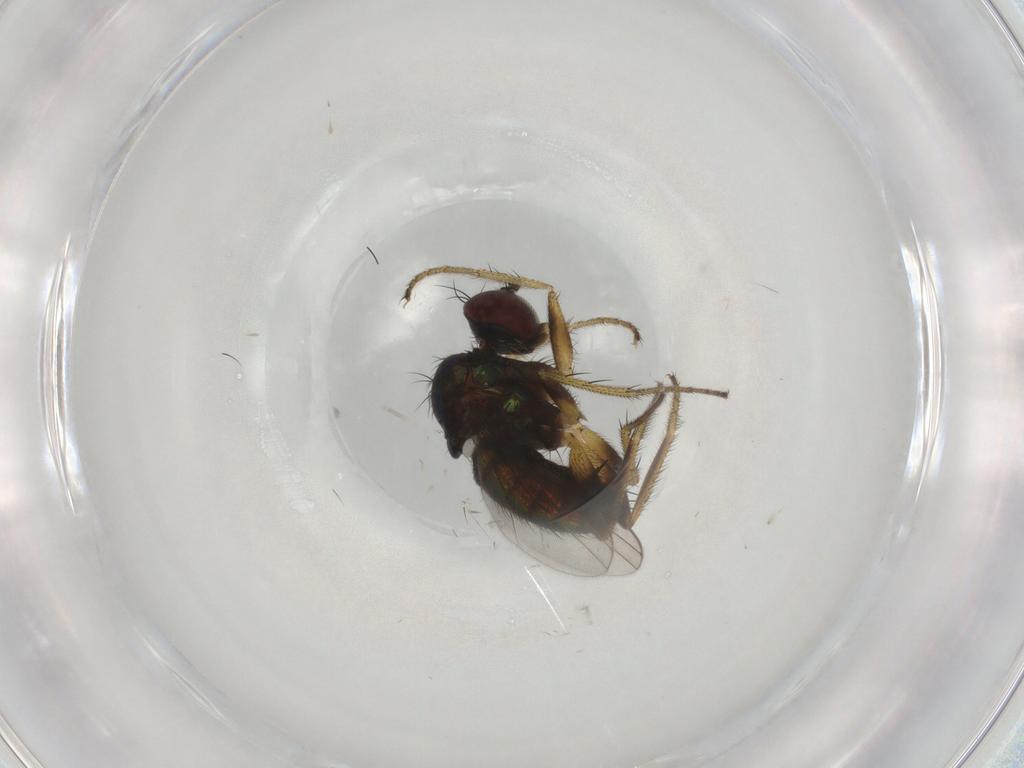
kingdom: Animalia
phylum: Arthropoda
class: Insecta
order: Diptera
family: Dolichopodidae
